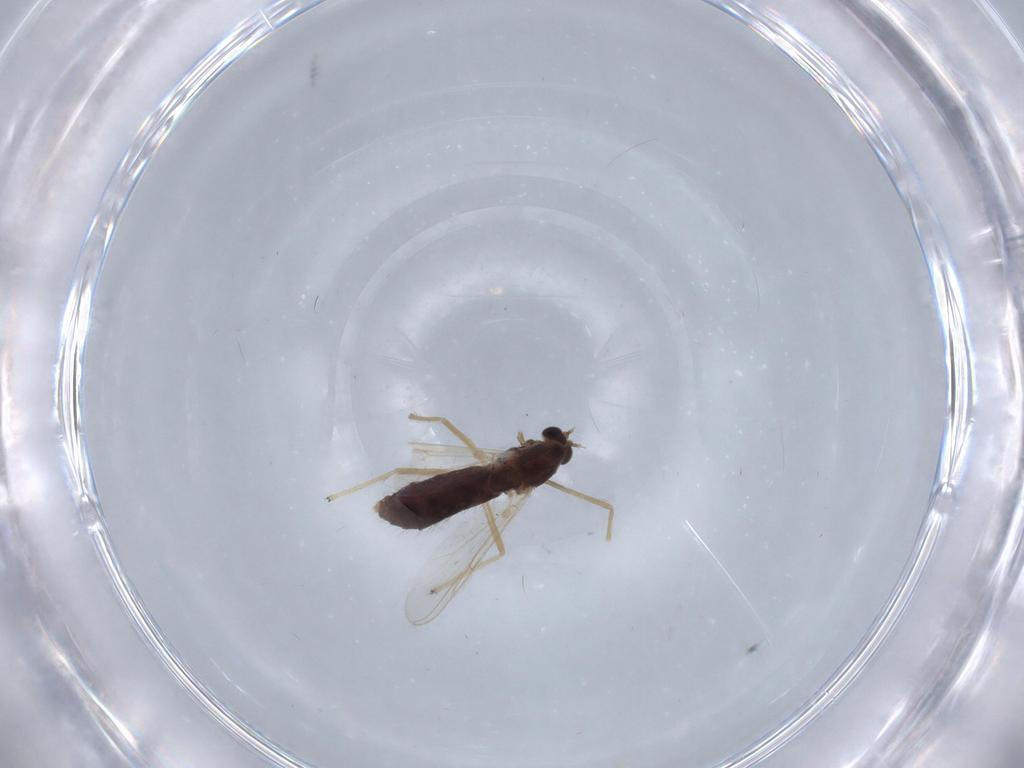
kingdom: Animalia
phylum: Arthropoda
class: Insecta
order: Diptera
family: Chironomidae
